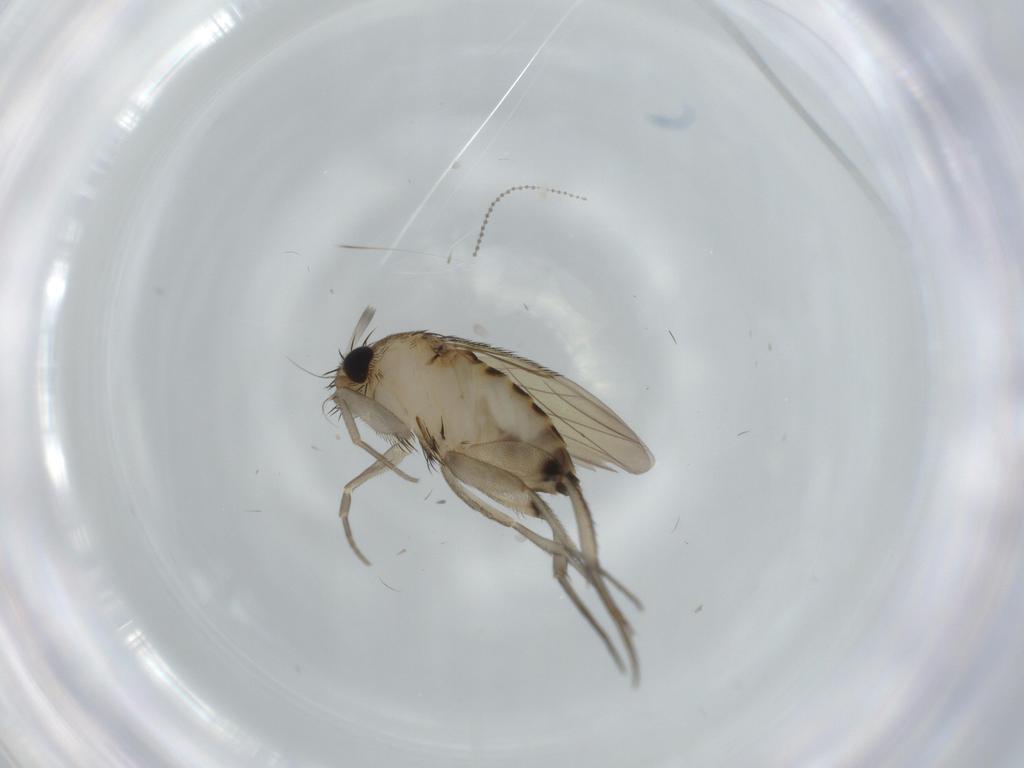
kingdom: Animalia
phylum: Arthropoda
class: Insecta
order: Diptera
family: Phoridae
